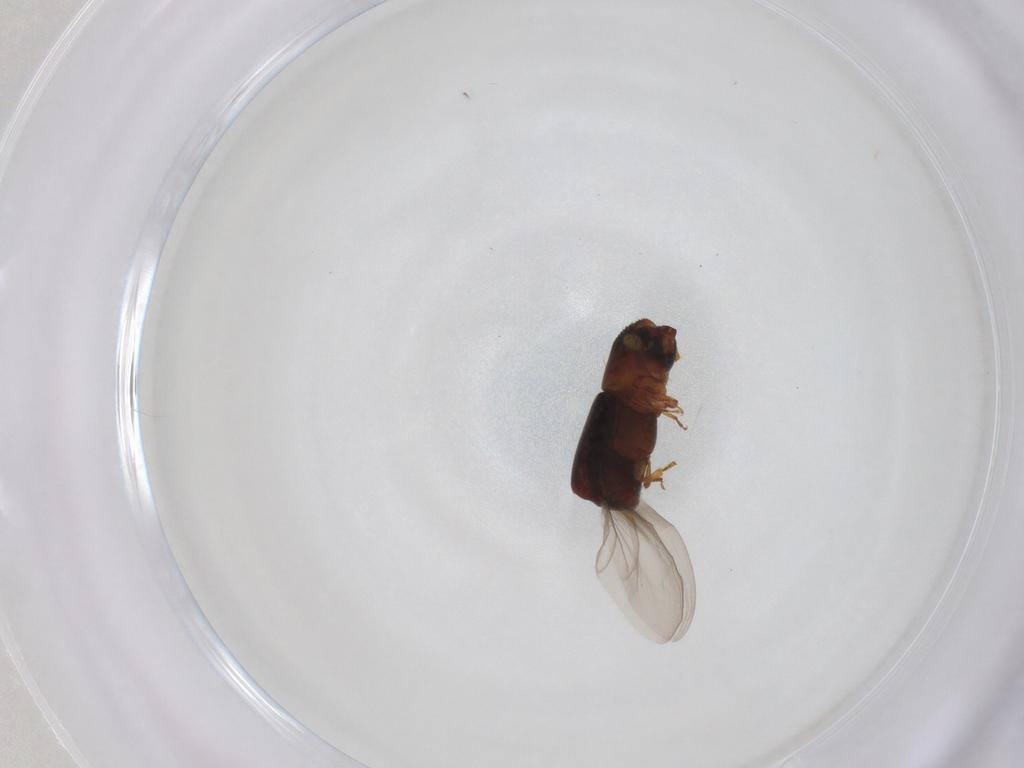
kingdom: Animalia
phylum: Arthropoda
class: Insecta
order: Coleoptera
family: Curculionidae
